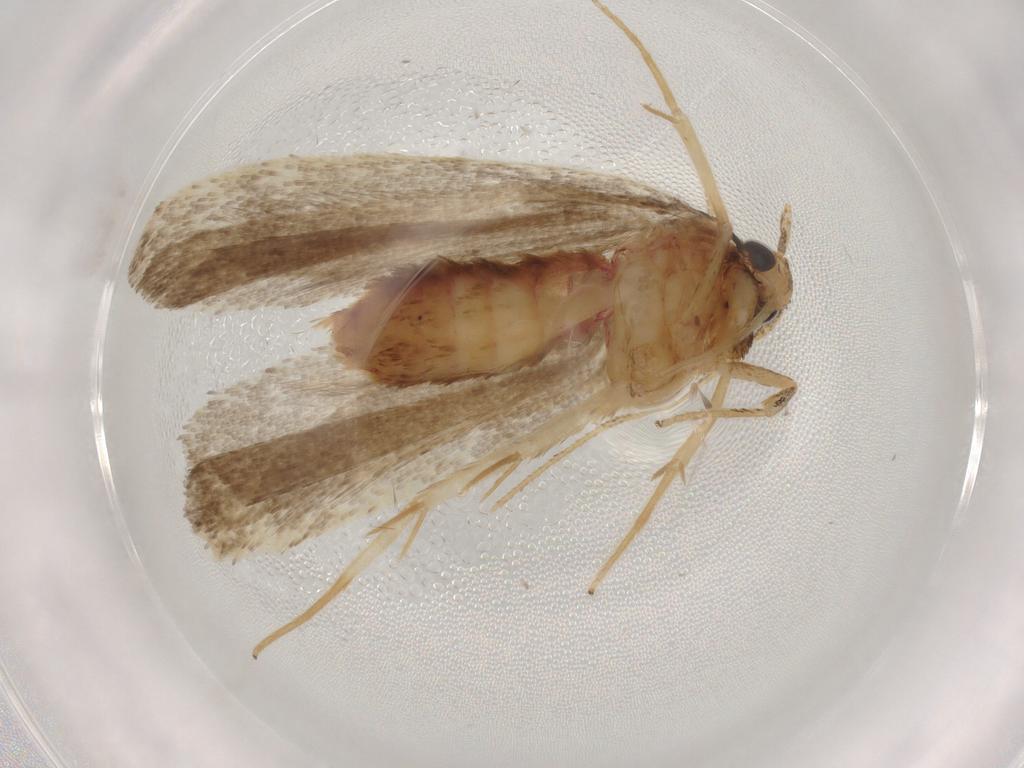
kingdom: Animalia
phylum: Arthropoda
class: Insecta
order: Lepidoptera
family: Lecithoceridae
